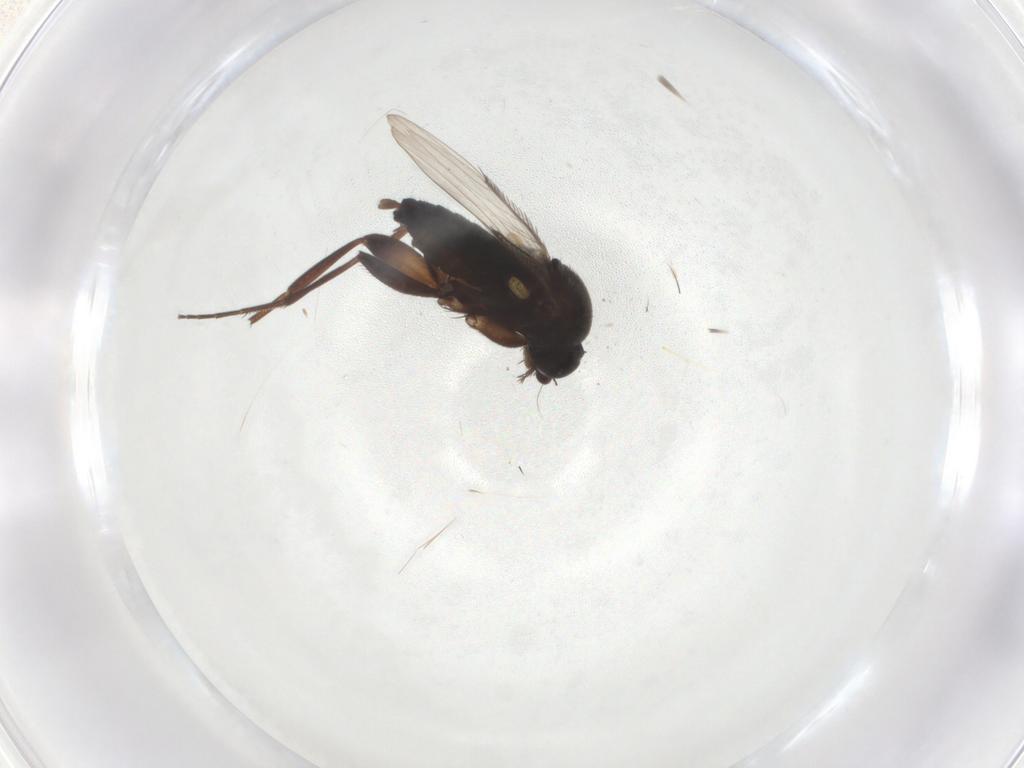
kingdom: Animalia
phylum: Arthropoda
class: Insecta
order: Diptera
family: Phoridae
